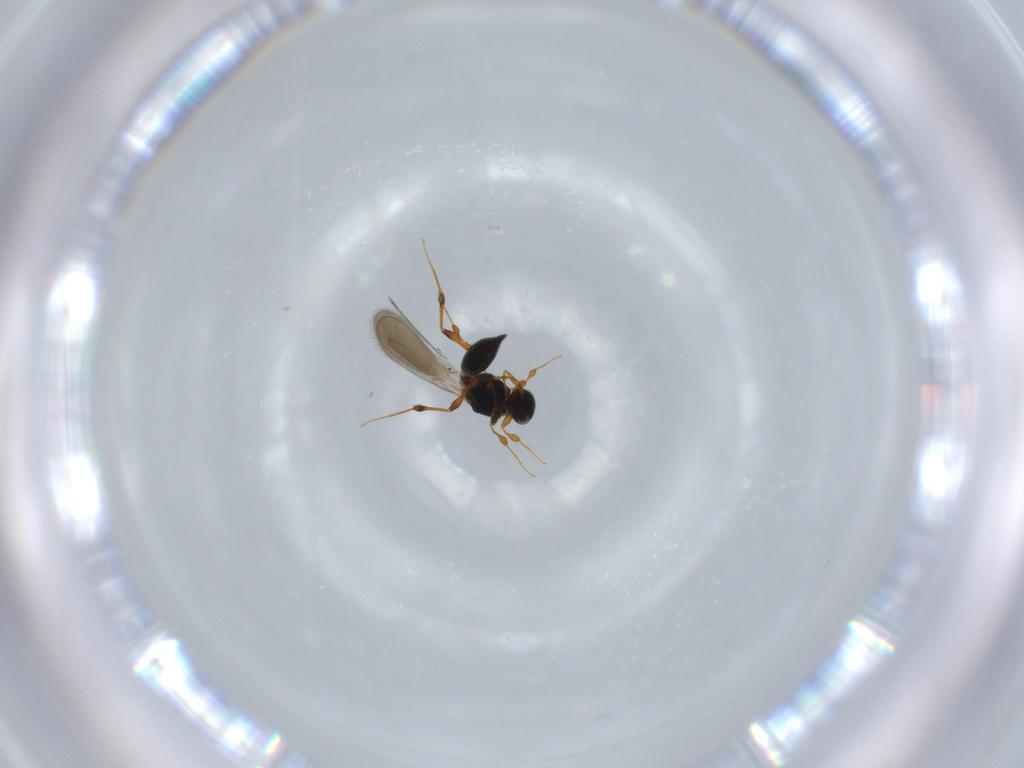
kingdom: Animalia
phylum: Arthropoda
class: Insecta
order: Hymenoptera
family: Platygastridae
